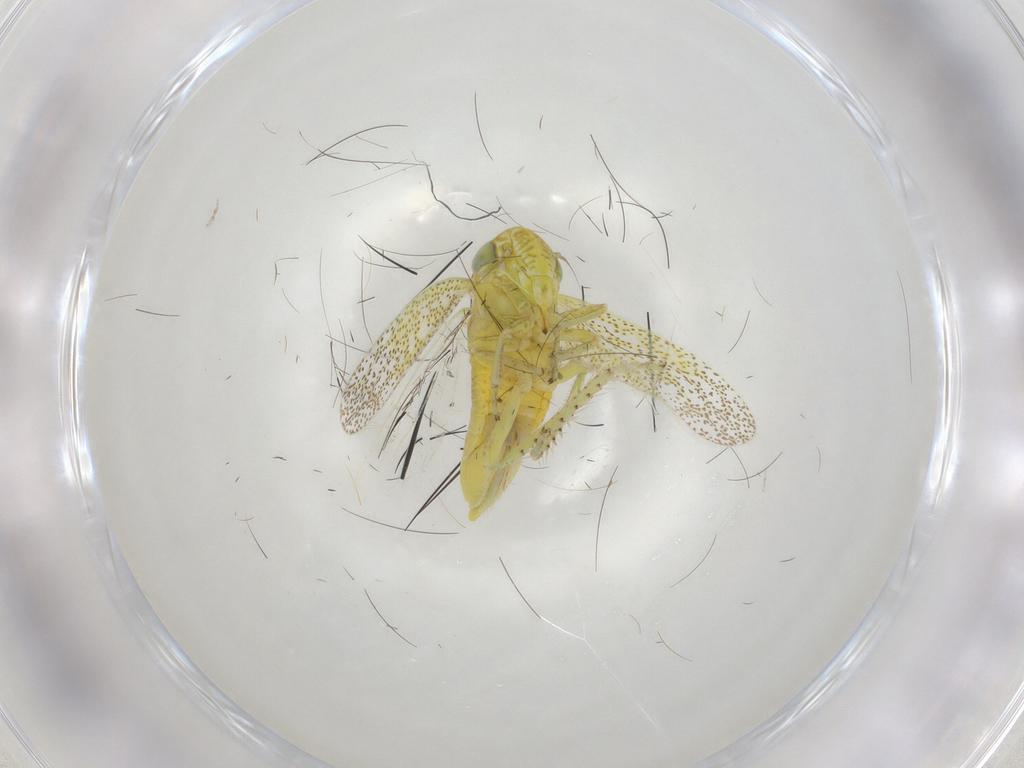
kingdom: Animalia
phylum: Arthropoda
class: Insecta
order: Hemiptera
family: Cicadellidae
